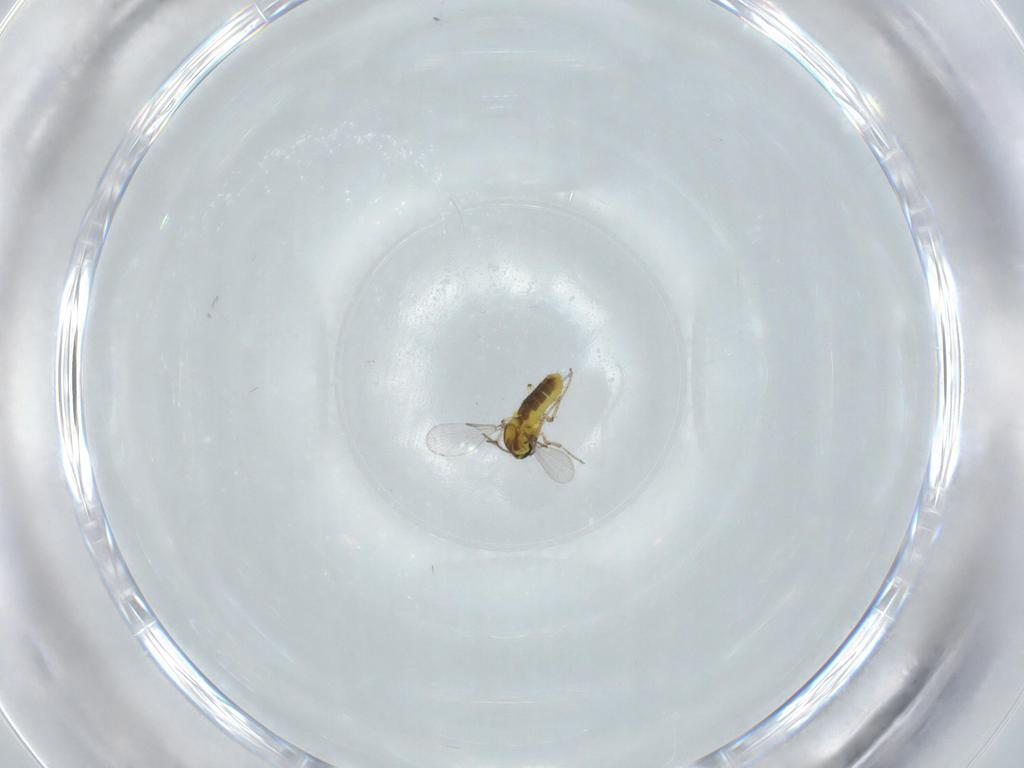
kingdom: Animalia
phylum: Arthropoda
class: Insecta
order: Diptera
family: Ceratopogonidae
